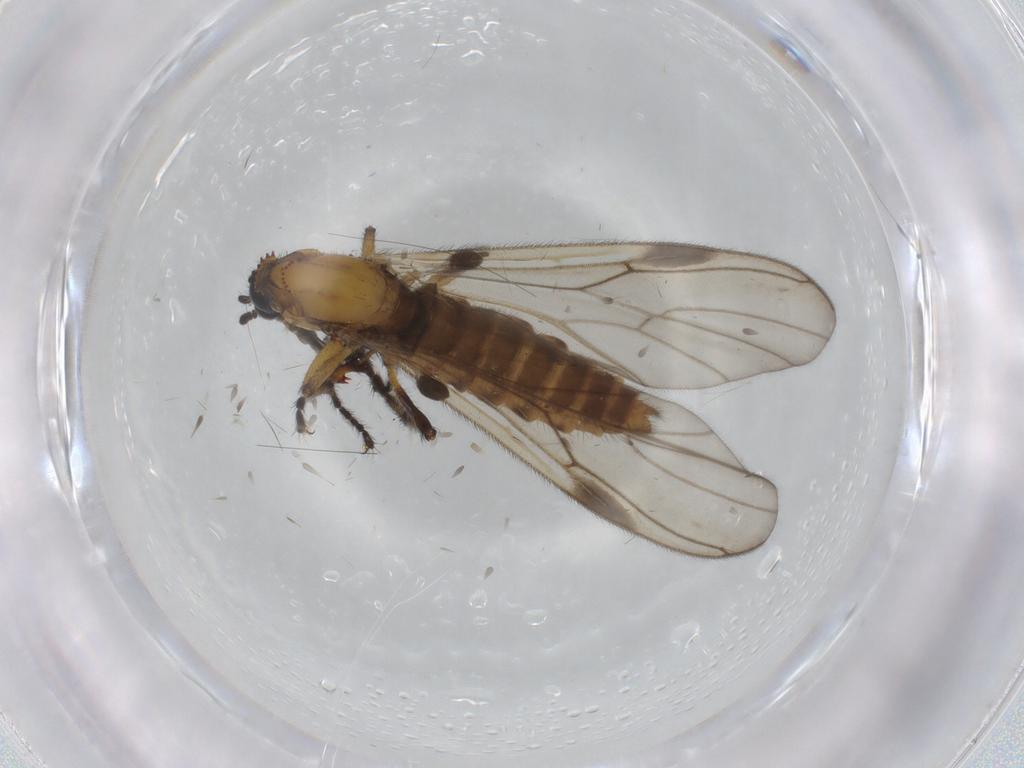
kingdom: Animalia
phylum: Arthropoda
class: Insecta
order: Diptera
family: Bibionidae
